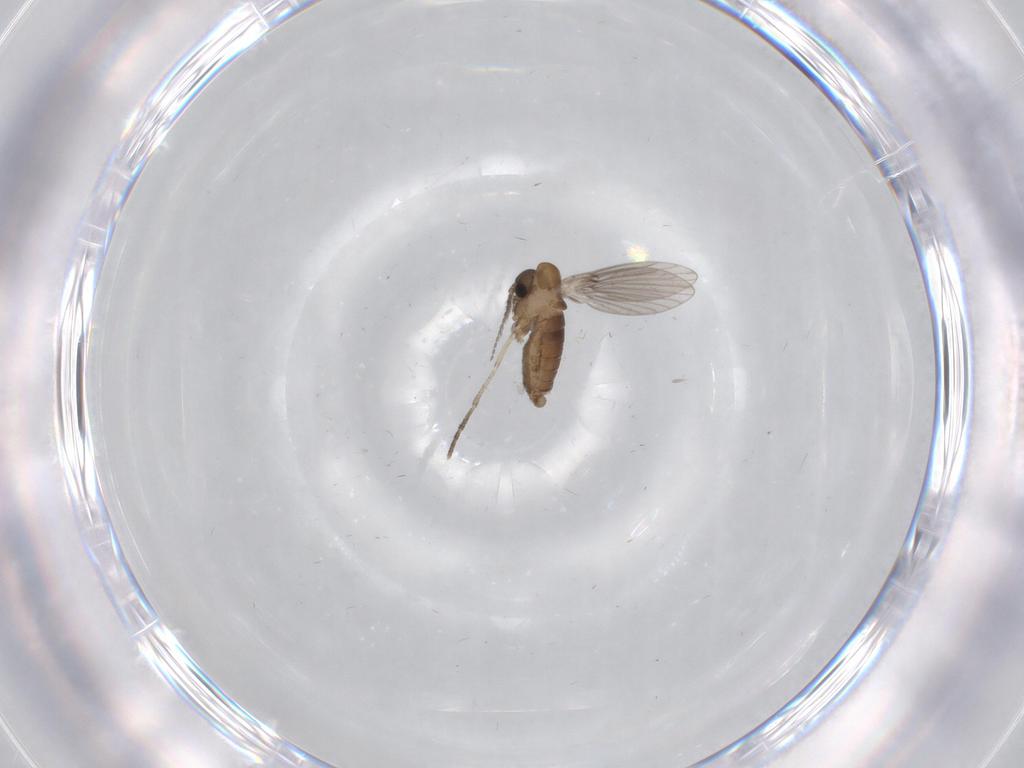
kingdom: Animalia
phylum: Arthropoda
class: Insecta
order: Diptera
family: Psychodidae
